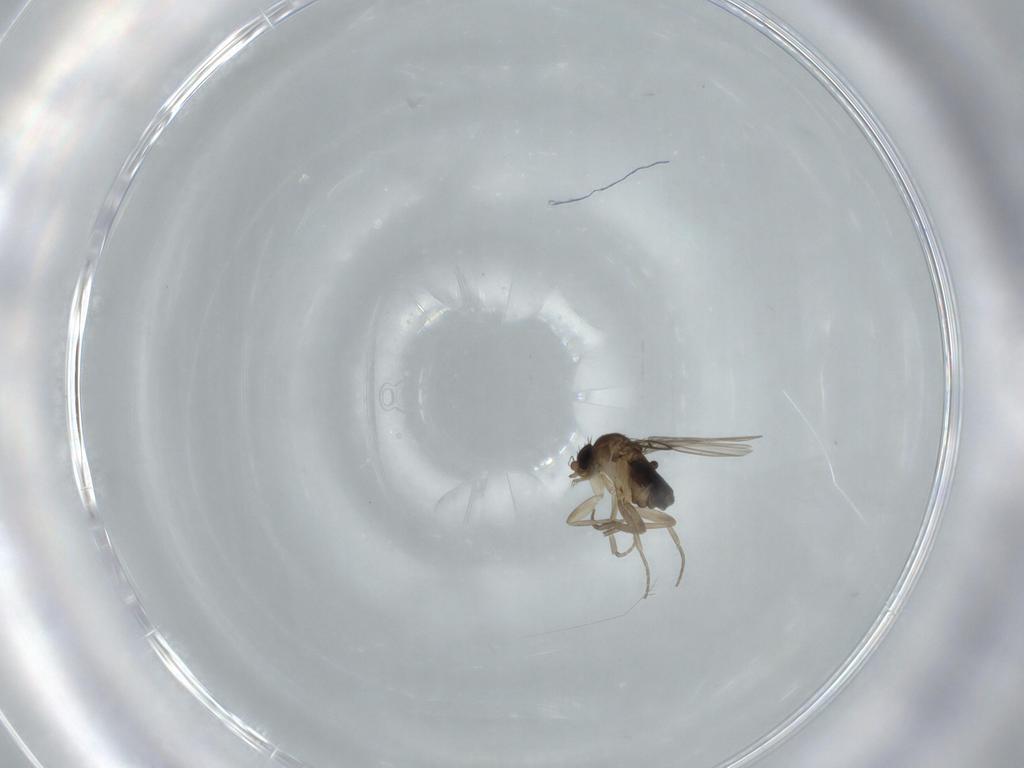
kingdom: Animalia
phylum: Arthropoda
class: Insecta
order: Diptera
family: Phoridae
